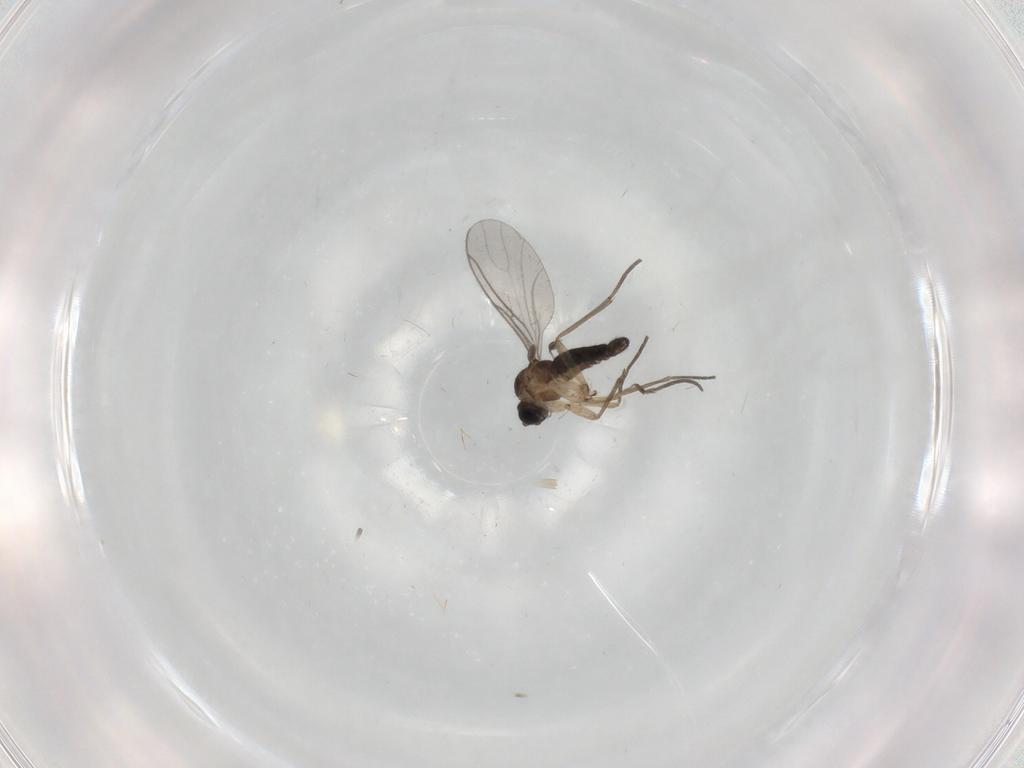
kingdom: Animalia
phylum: Arthropoda
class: Insecta
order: Diptera
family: Sciaridae
